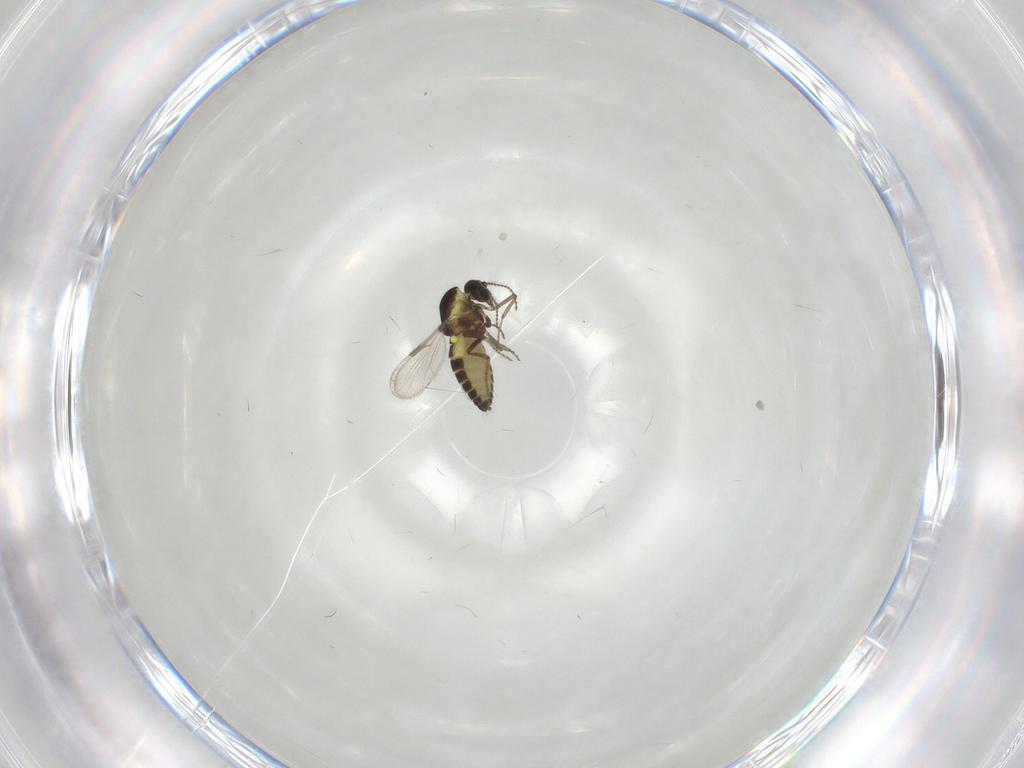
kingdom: Animalia
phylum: Arthropoda
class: Insecta
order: Diptera
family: Ceratopogonidae
